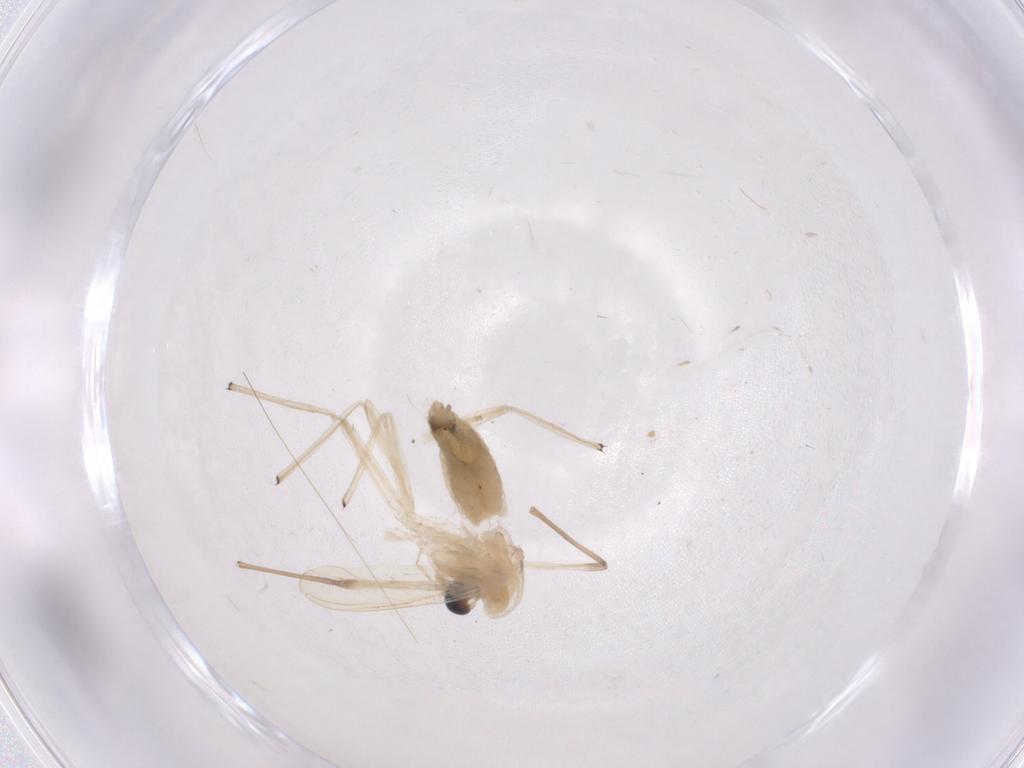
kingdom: Animalia
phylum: Arthropoda
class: Insecta
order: Diptera
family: Chironomidae
